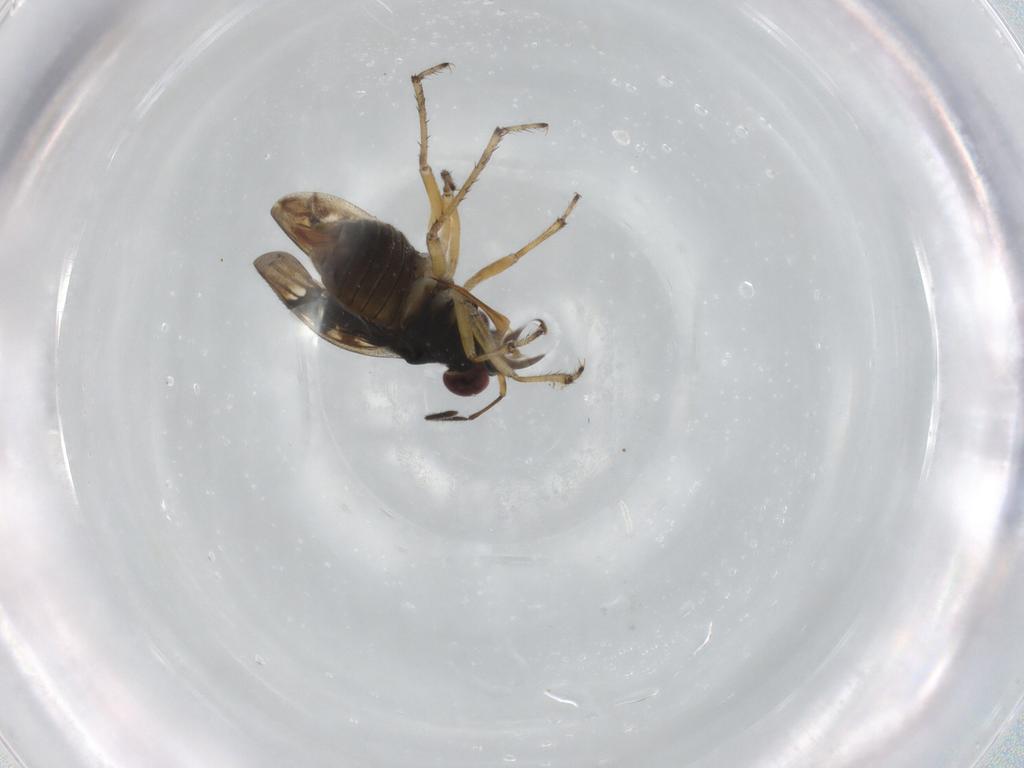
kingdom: Animalia
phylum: Arthropoda
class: Insecta
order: Hemiptera
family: Saldidae
